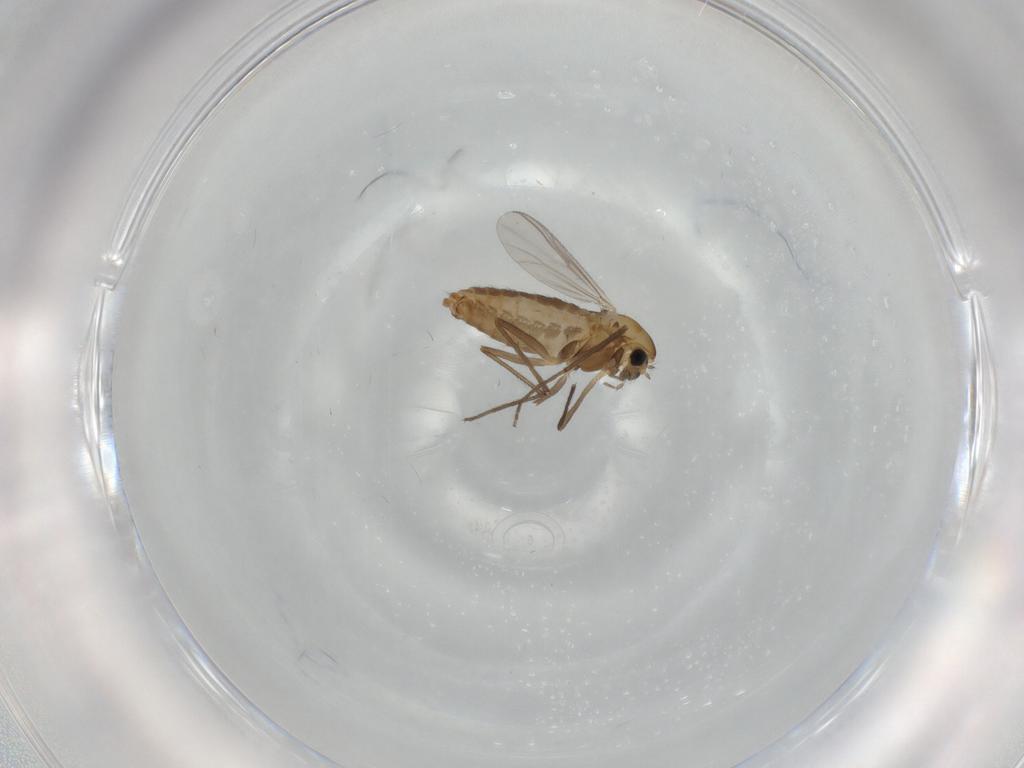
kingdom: Animalia
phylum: Arthropoda
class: Insecta
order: Diptera
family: Chironomidae
